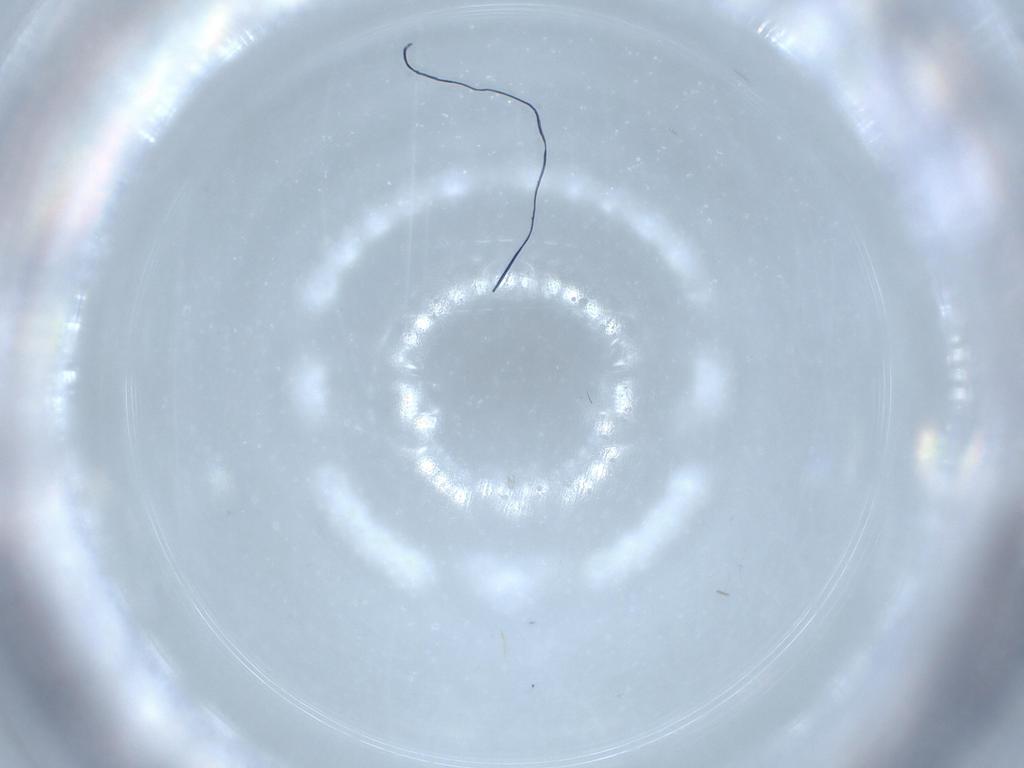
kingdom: Animalia
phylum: Arthropoda
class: Insecta
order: Diptera
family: Cecidomyiidae
